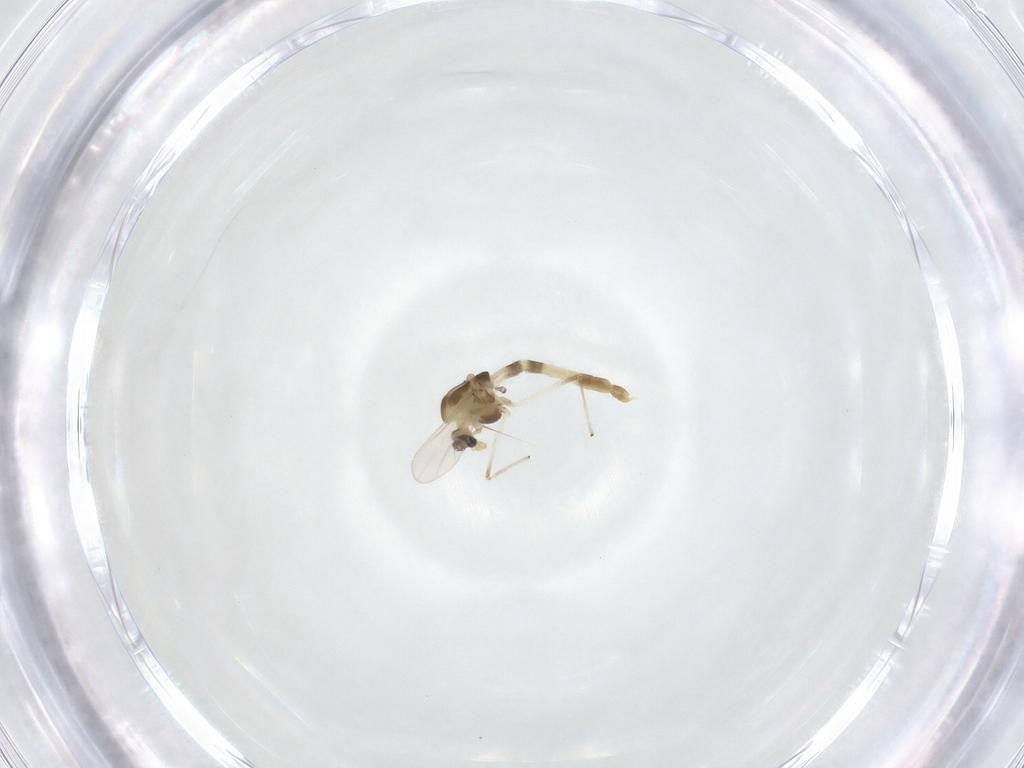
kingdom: Animalia
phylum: Arthropoda
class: Insecta
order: Diptera
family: Chironomidae
